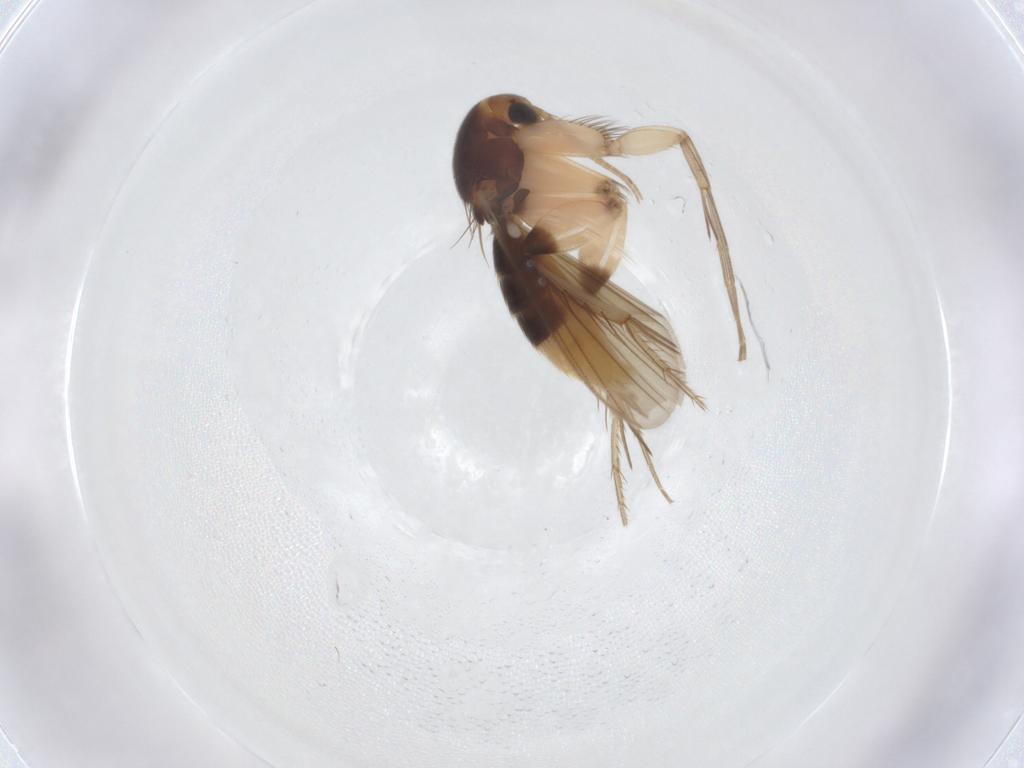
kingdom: Animalia
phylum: Arthropoda
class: Insecta
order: Diptera
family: Mycetophilidae
